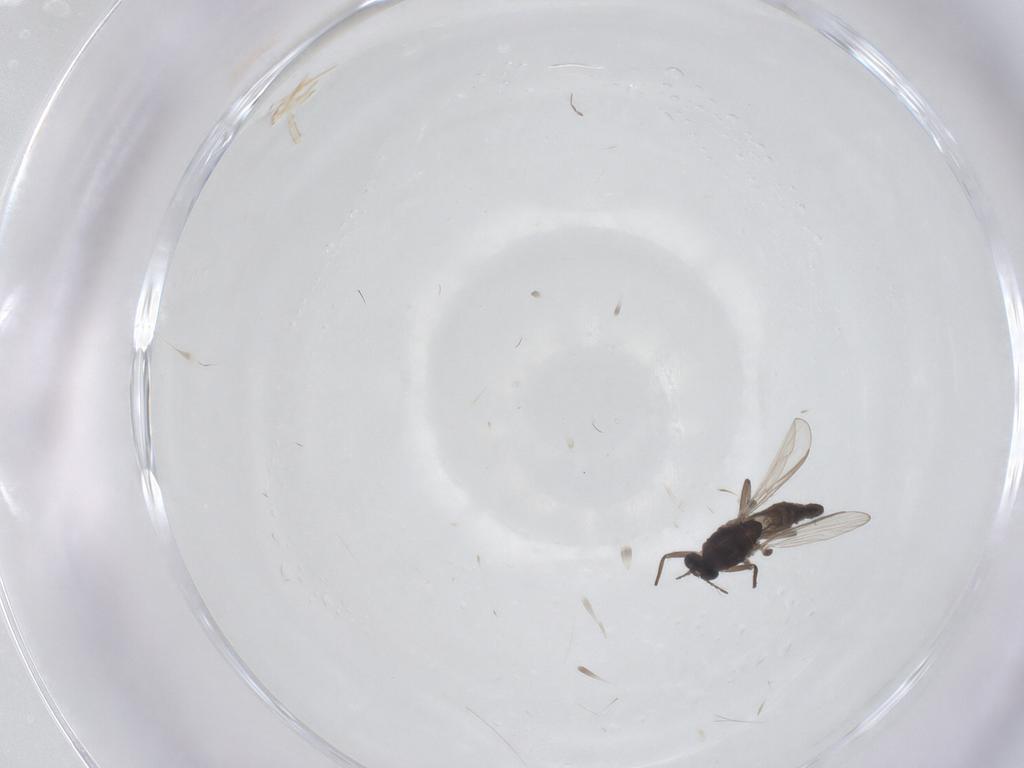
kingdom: Animalia
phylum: Arthropoda
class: Insecta
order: Diptera
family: Chironomidae
